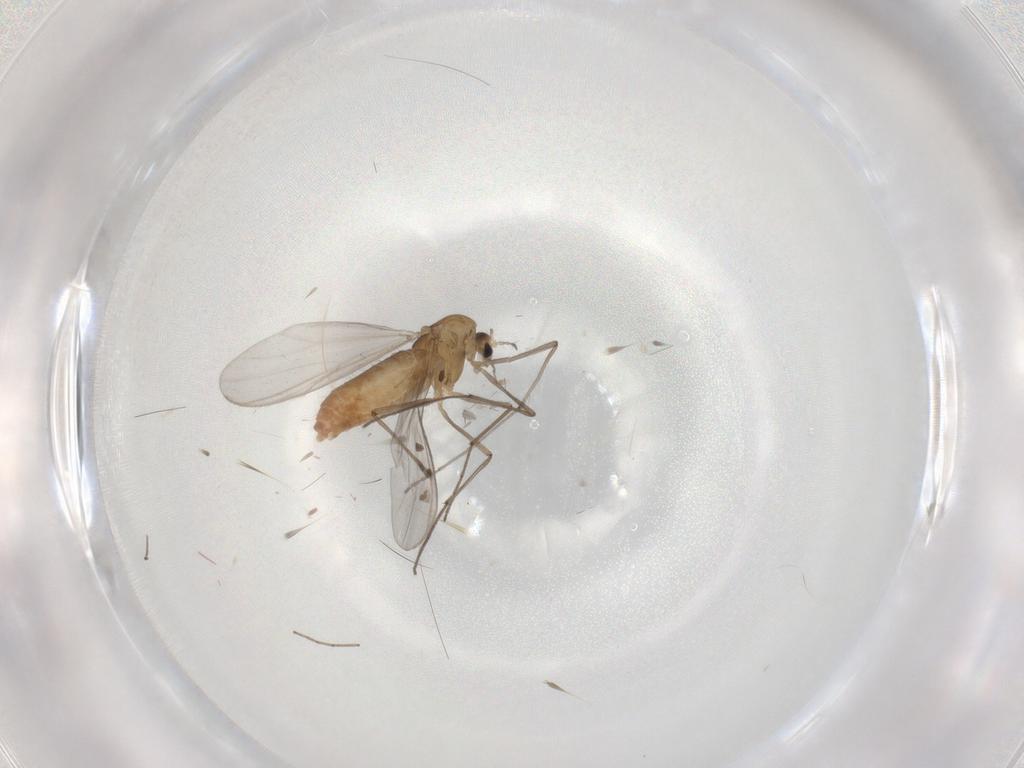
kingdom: Animalia
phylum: Arthropoda
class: Insecta
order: Diptera
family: Chironomidae
